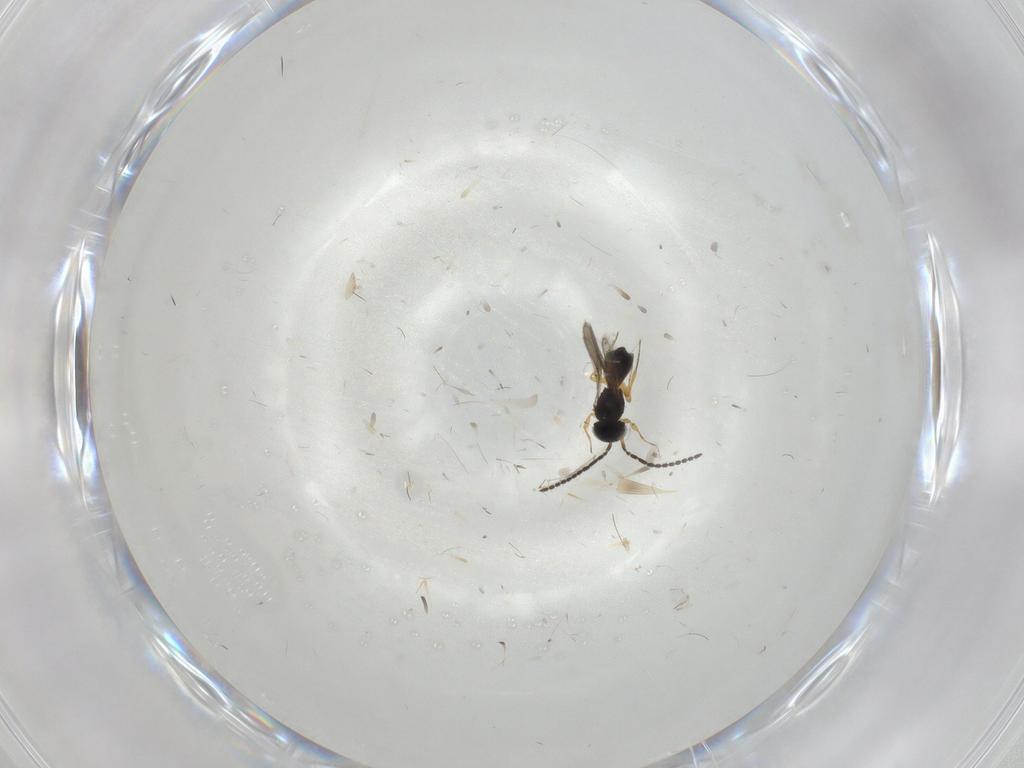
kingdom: Animalia
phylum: Arthropoda
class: Insecta
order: Hymenoptera
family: Scelionidae
